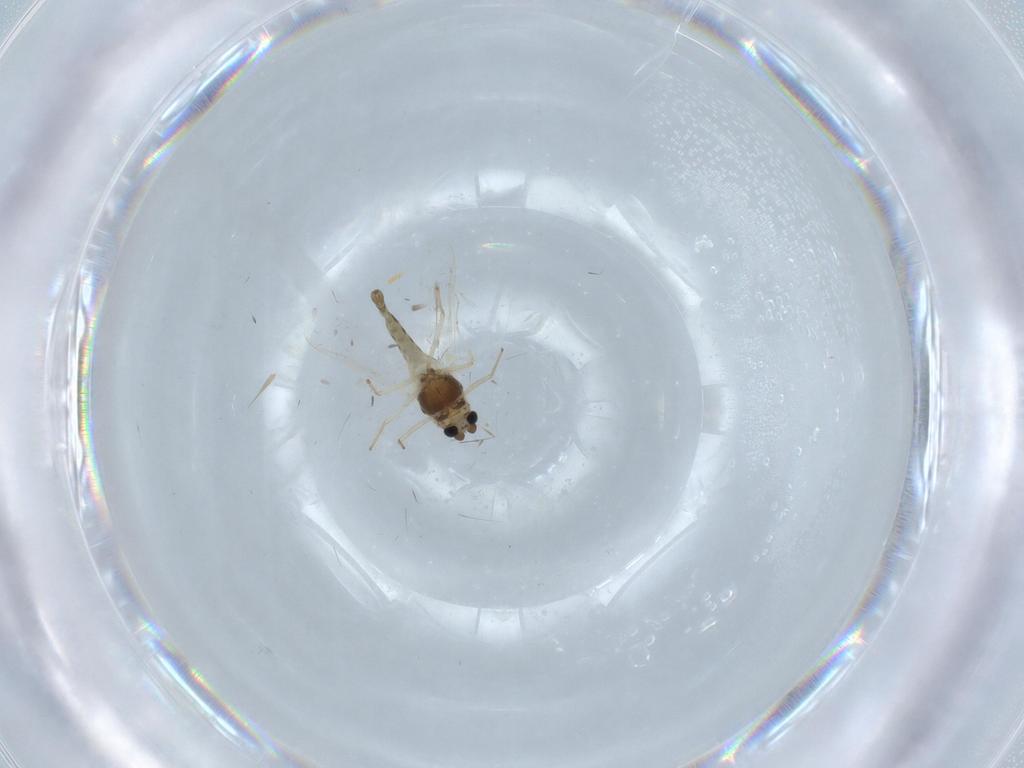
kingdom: Animalia
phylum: Arthropoda
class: Insecta
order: Diptera
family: Chironomidae
